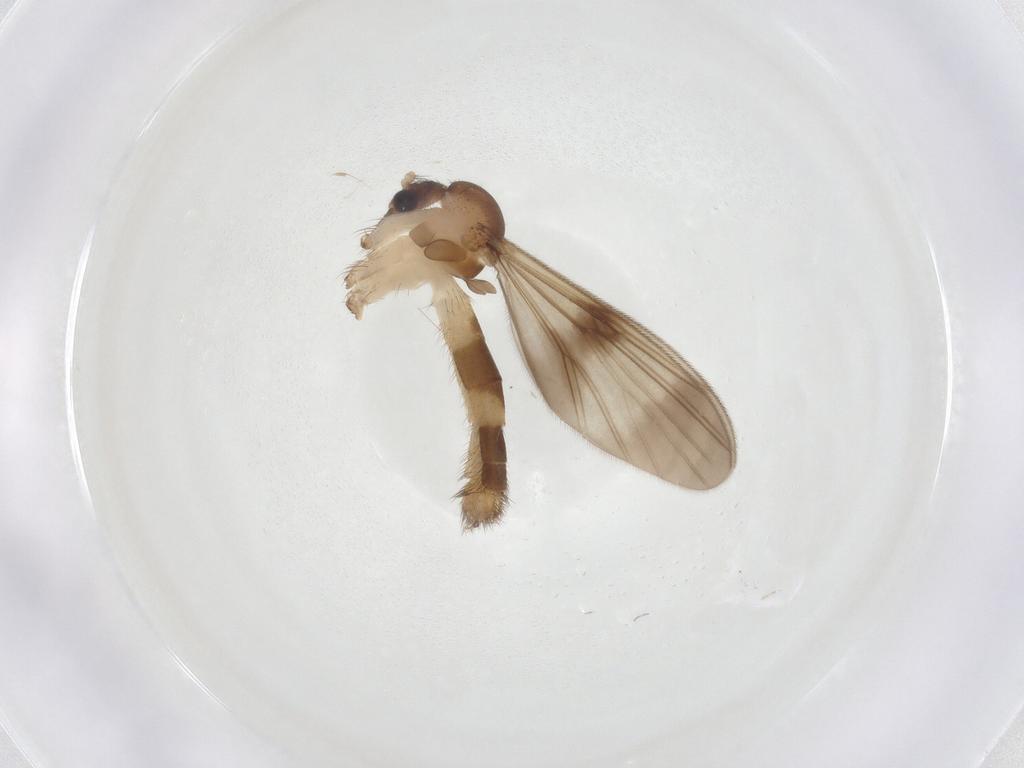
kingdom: Animalia
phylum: Arthropoda
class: Insecta
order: Diptera
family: Mycetophilidae
